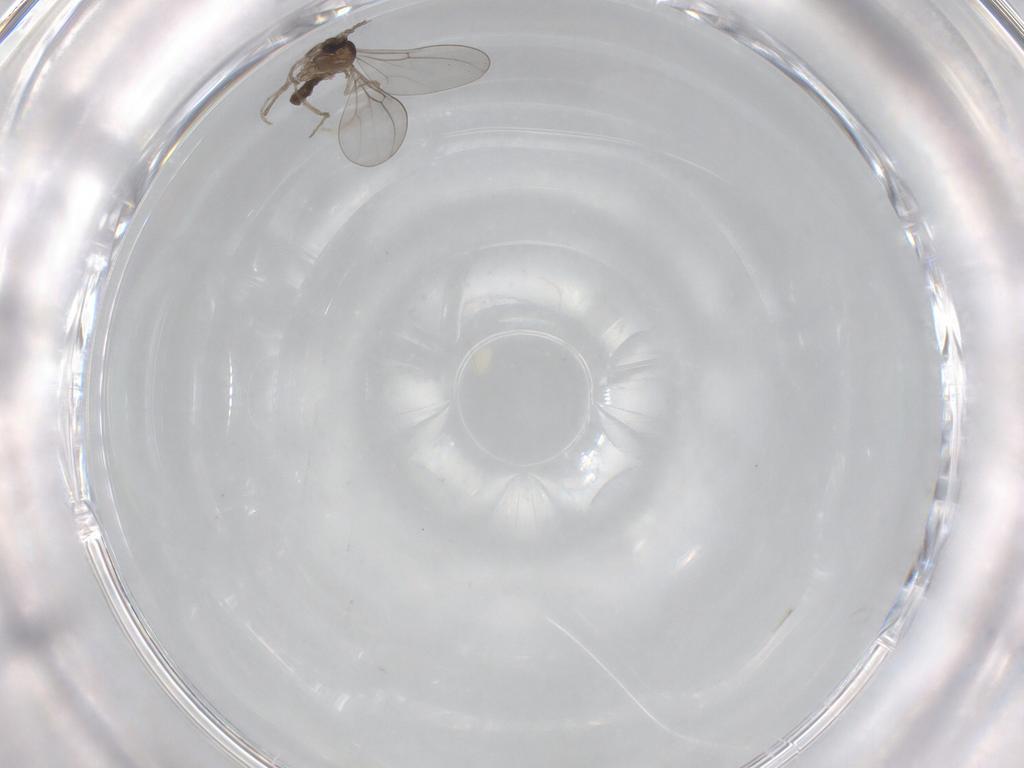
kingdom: Animalia
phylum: Arthropoda
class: Insecta
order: Diptera
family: Cecidomyiidae
